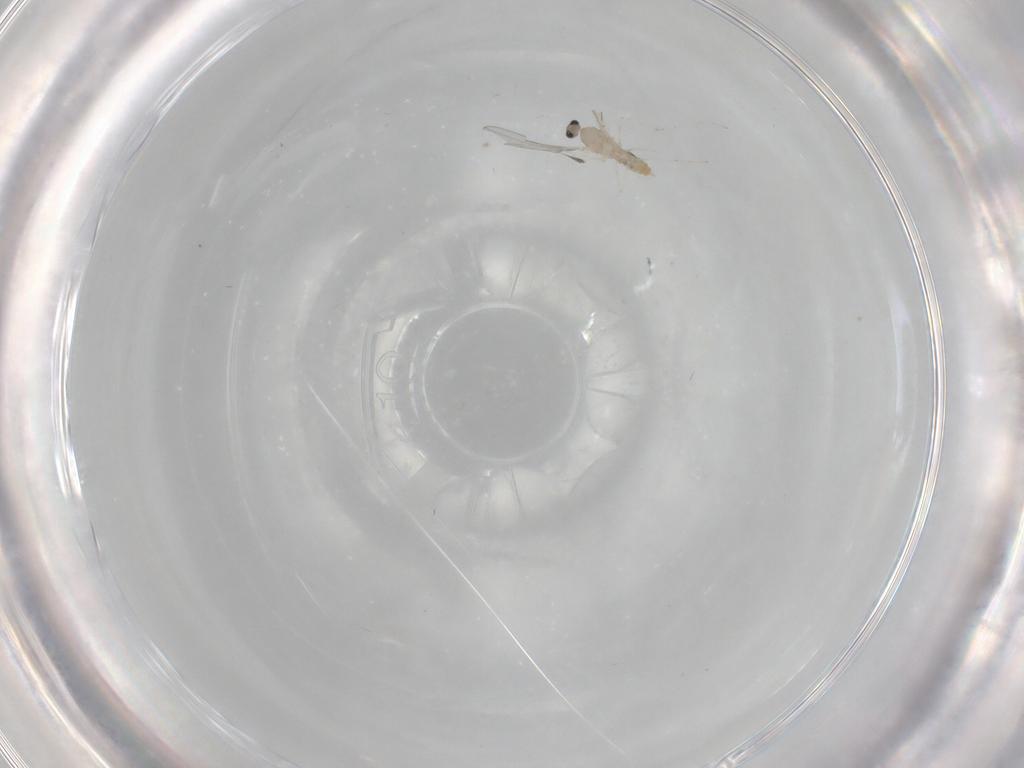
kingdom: Animalia
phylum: Arthropoda
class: Insecta
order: Diptera
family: Cecidomyiidae
